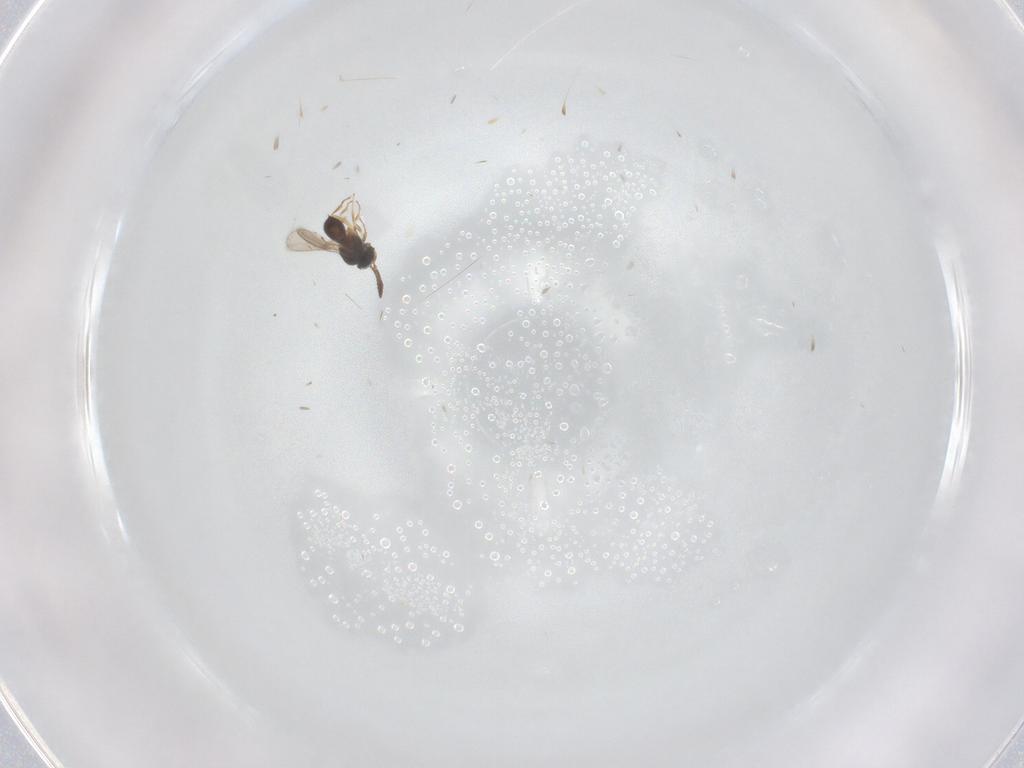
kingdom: Animalia
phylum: Arthropoda
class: Insecta
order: Hymenoptera
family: Scelionidae
